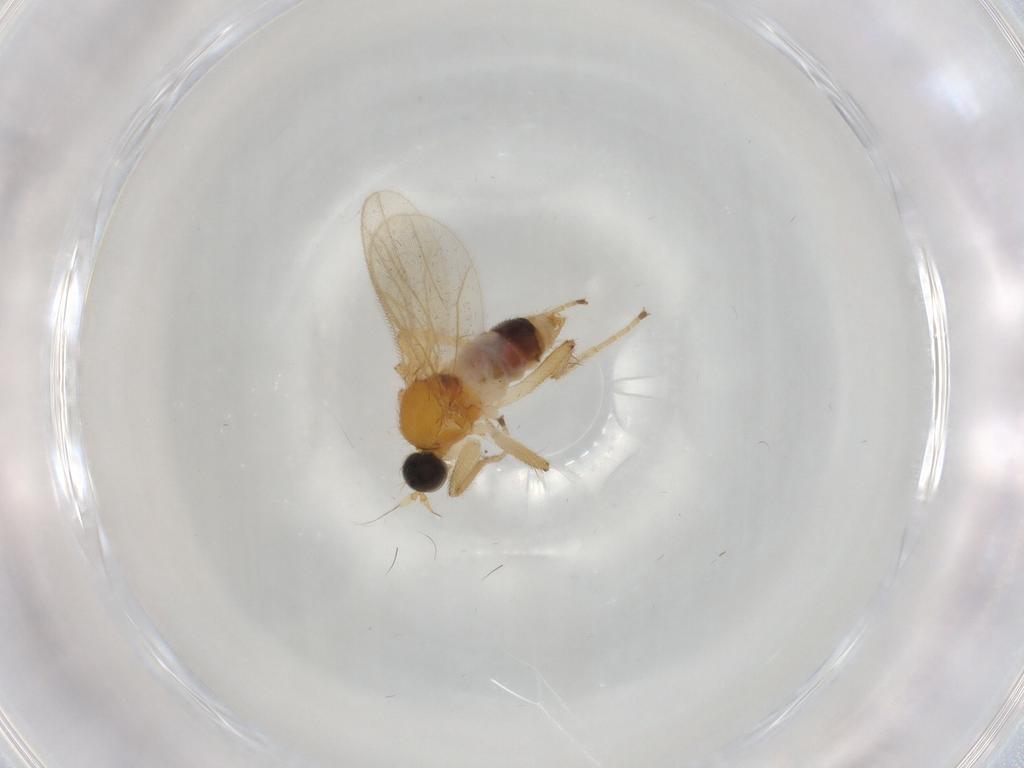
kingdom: Animalia
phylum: Arthropoda
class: Insecta
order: Diptera
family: Hybotidae
